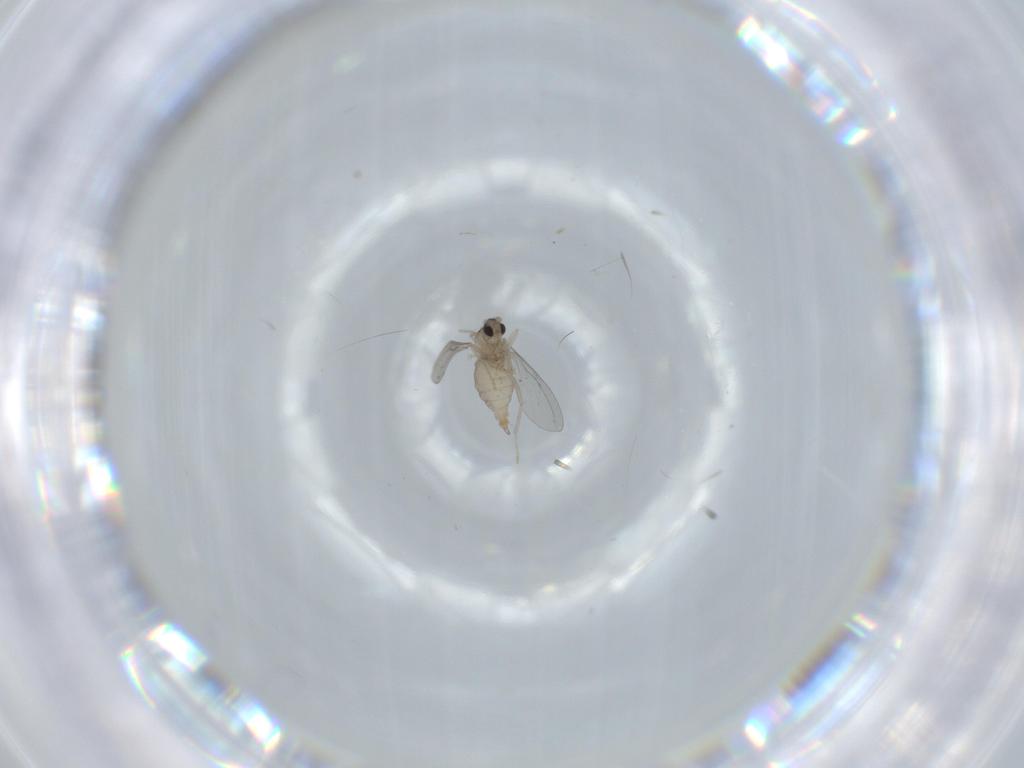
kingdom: Animalia
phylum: Arthropoda
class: Insecta
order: Diptera
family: Cecidomyiidae
